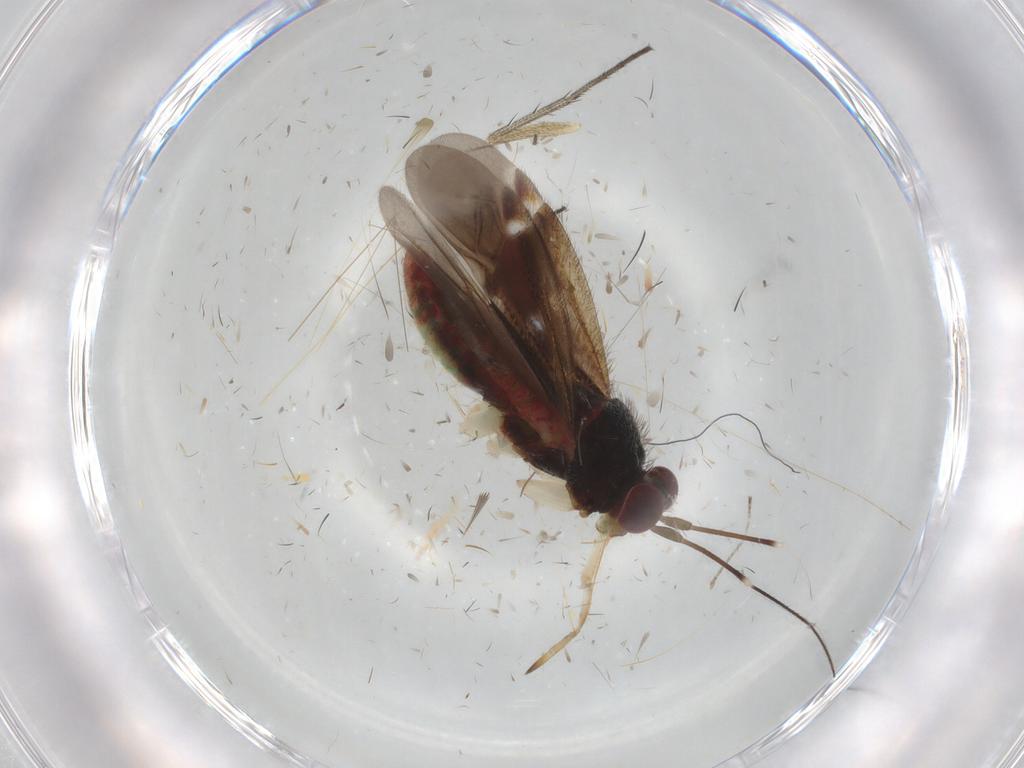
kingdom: Animalia
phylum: Arthropoda
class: Insecta
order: Hemiptera
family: Miridae
